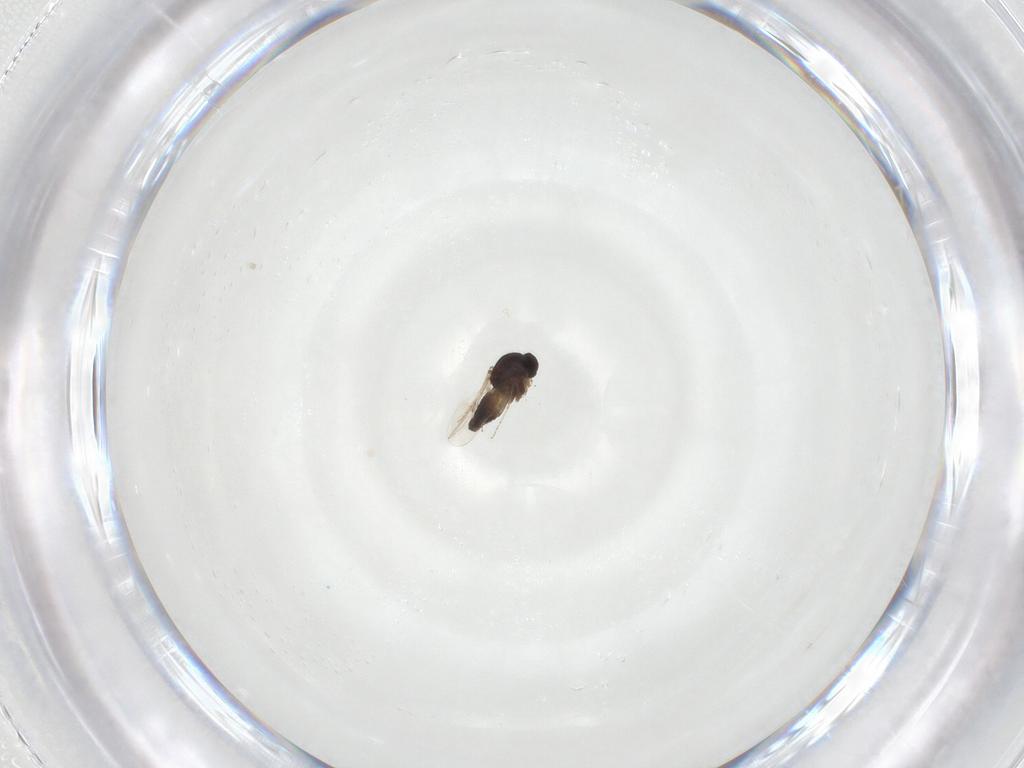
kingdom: Animalia
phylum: Arthropoda
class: Insecta
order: Diptera
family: Ceratopogonidae
